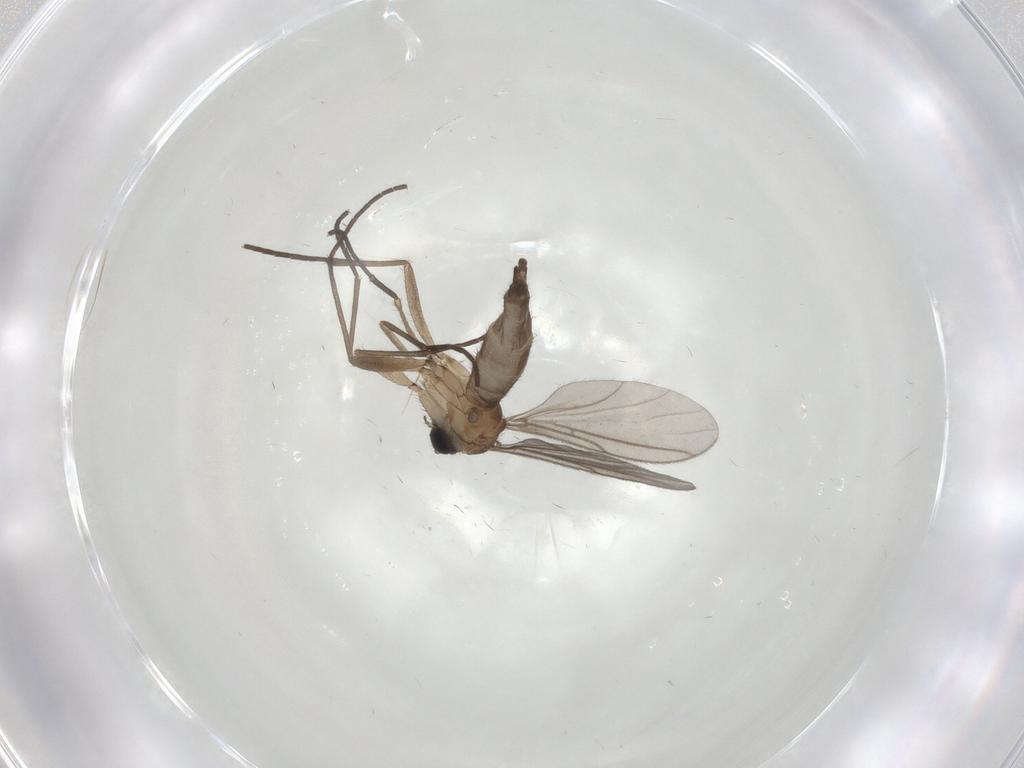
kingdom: Animalia
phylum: Arthropoda
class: Insecta
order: Diptera
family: Sciaridae
